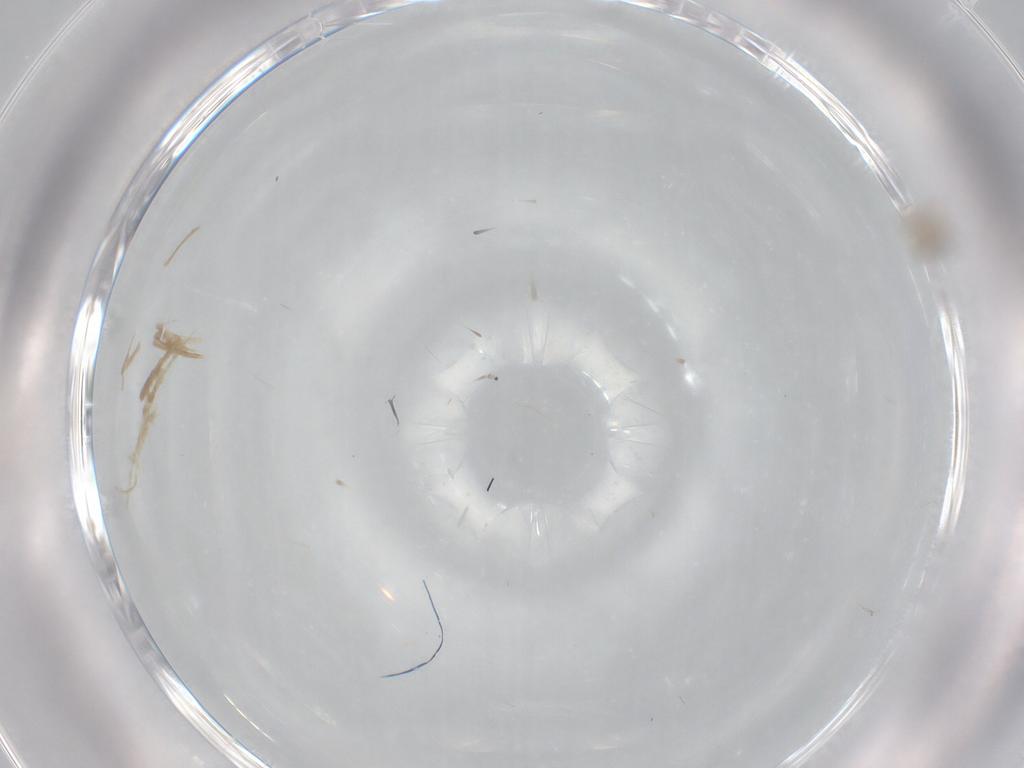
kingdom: Animalia
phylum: Arthropoda
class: Insecta
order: Hymenoptera
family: Mymaridae
